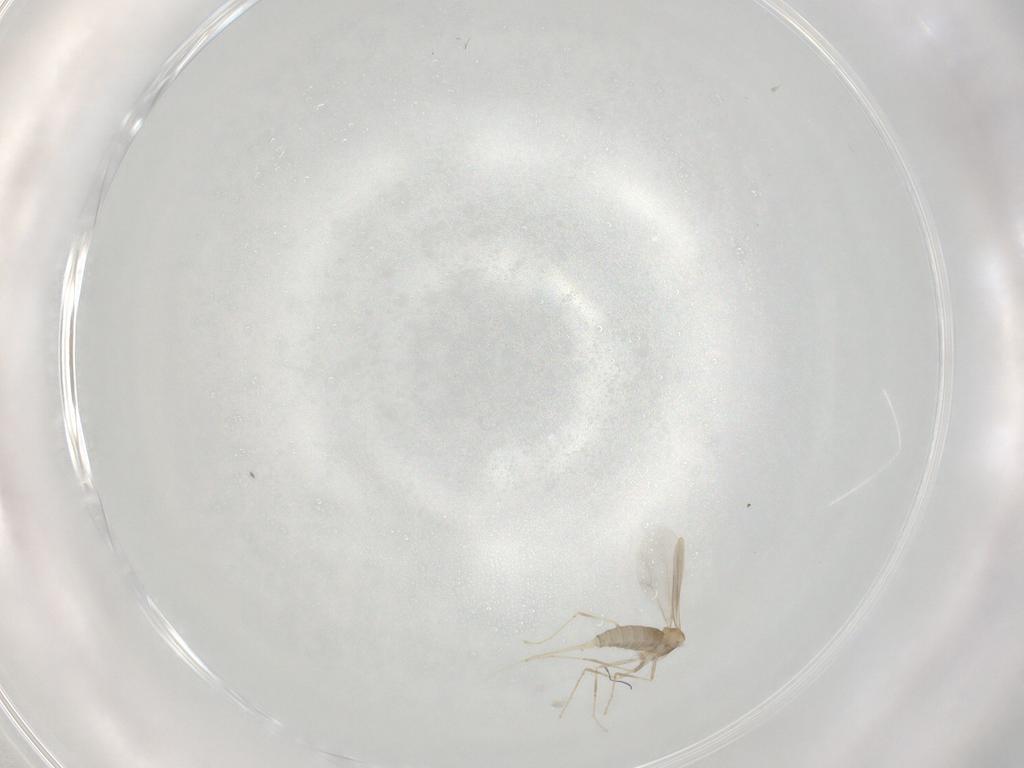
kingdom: Animalia
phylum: Arthropoda
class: Insecta
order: Diptera
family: Cecidomyiidae
